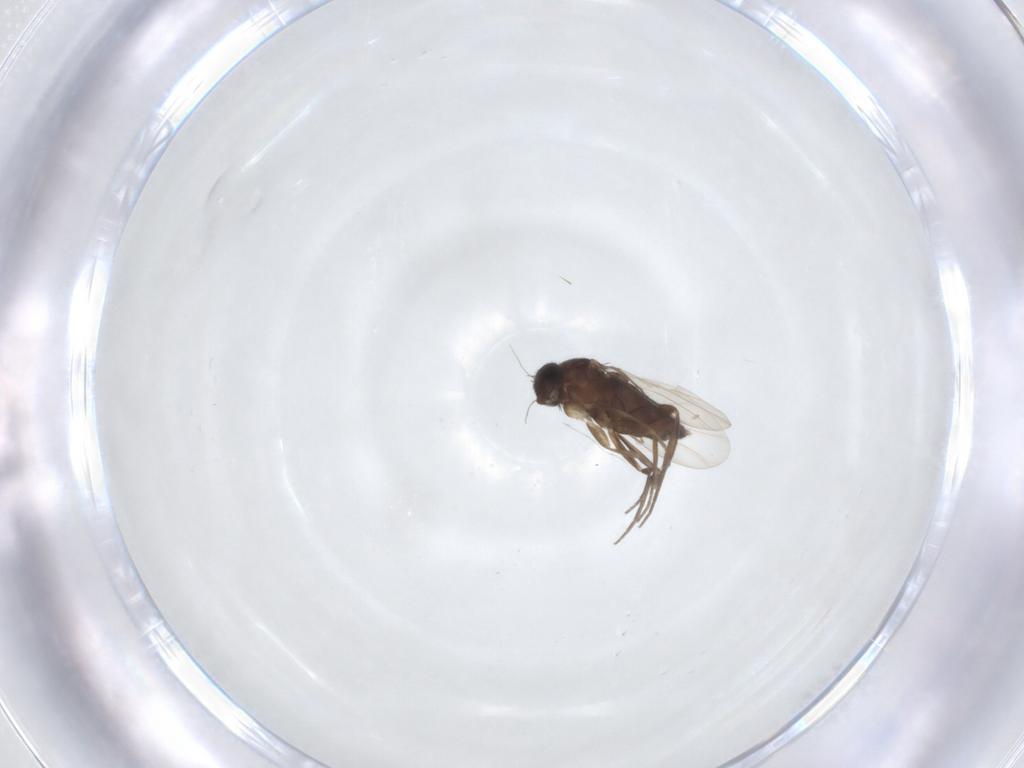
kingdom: Animalia
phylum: Arthropoda
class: Insecta
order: Diptera
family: Phoridae
